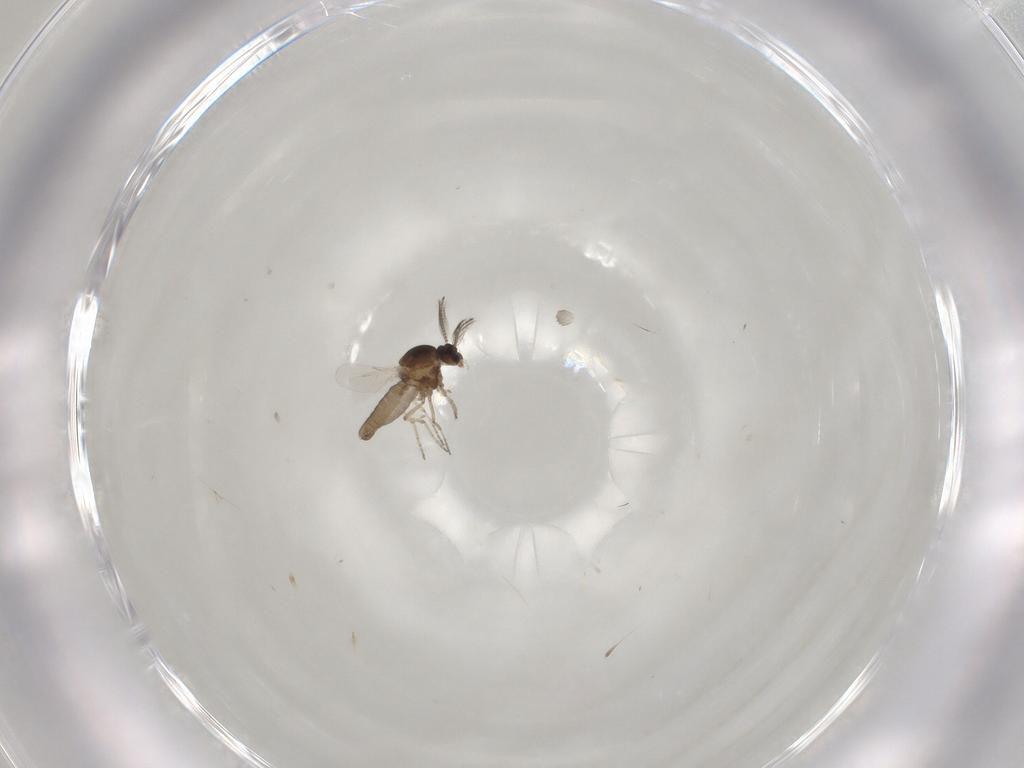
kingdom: Animalia
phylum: Arthropoda
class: Insecta
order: Diptera
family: Ceratopogonidae
